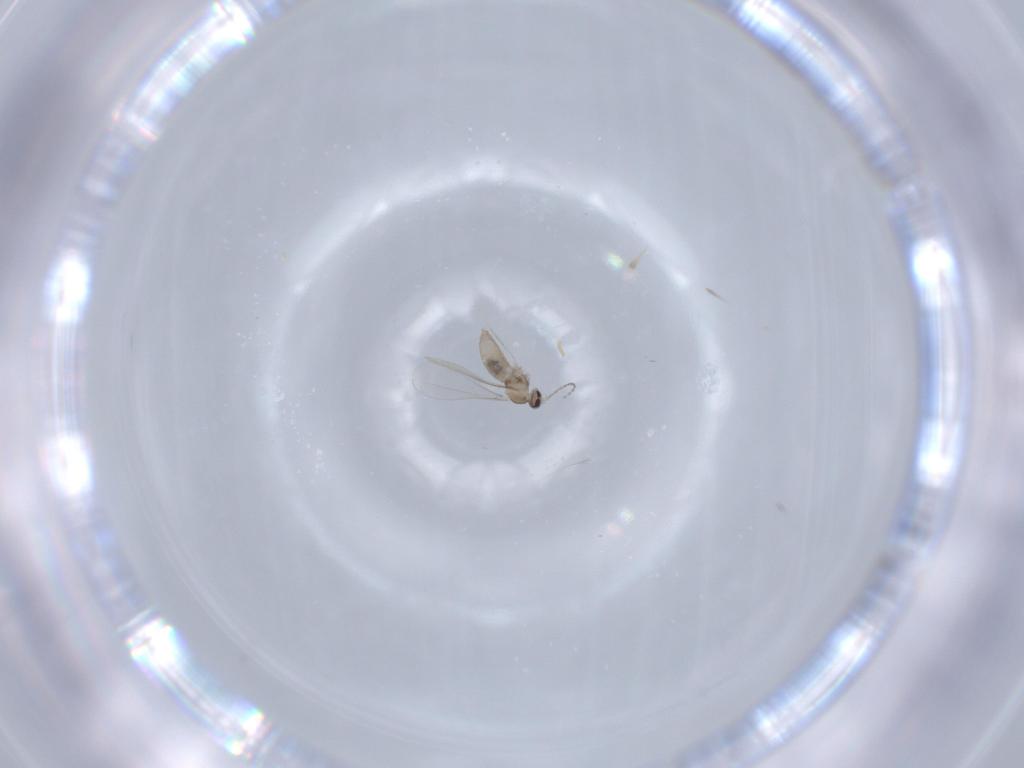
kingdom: Animalia
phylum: Arthropoda
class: Insecta
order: Diptera
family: Cecidomyiidae
